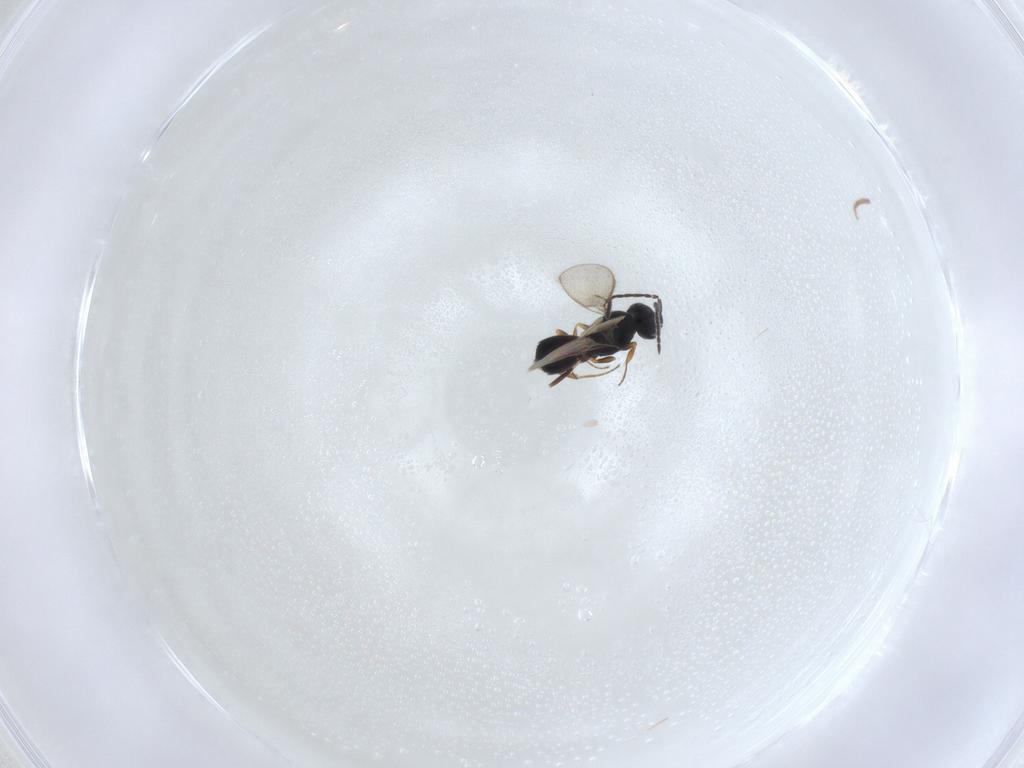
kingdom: Animalia
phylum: Arthropoda
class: Insecta
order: Hymenoptera
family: Scelionidae
